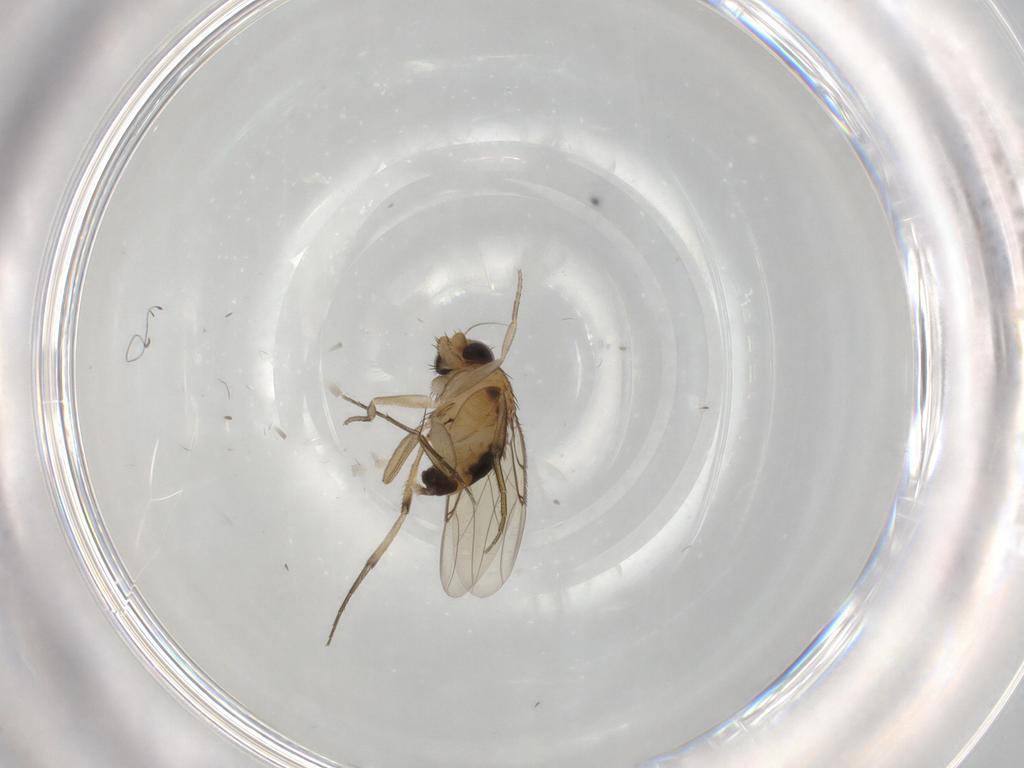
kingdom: Animalia
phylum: Arthropoda
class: Insecta
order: Diptera
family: Phoridae
